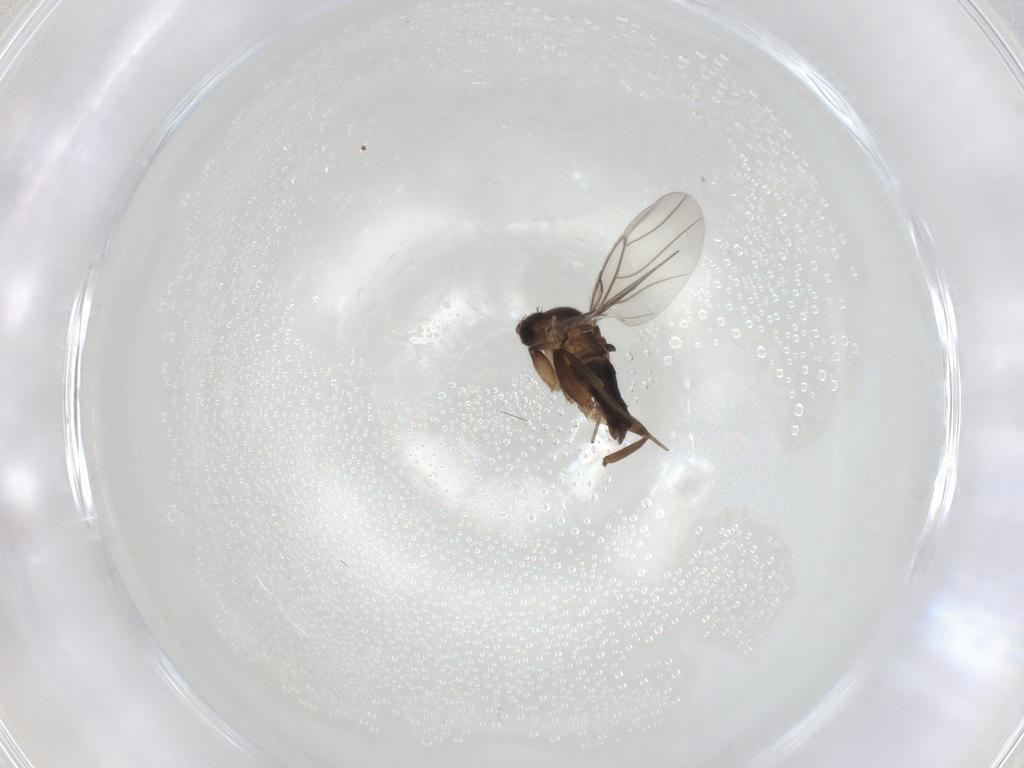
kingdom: Animalia
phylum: Arthropoda
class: Insecta
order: Diptera
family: Phoridae
